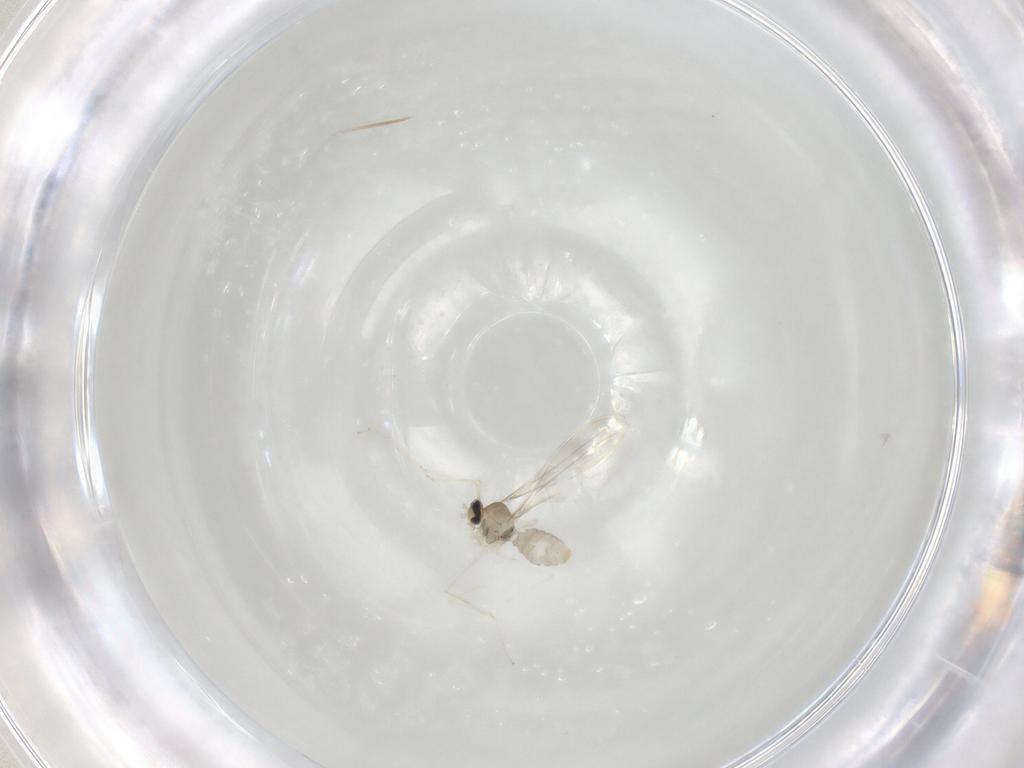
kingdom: Animalia
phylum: Arthropoda
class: Insecta
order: Diptera
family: Cecidomyiidae
